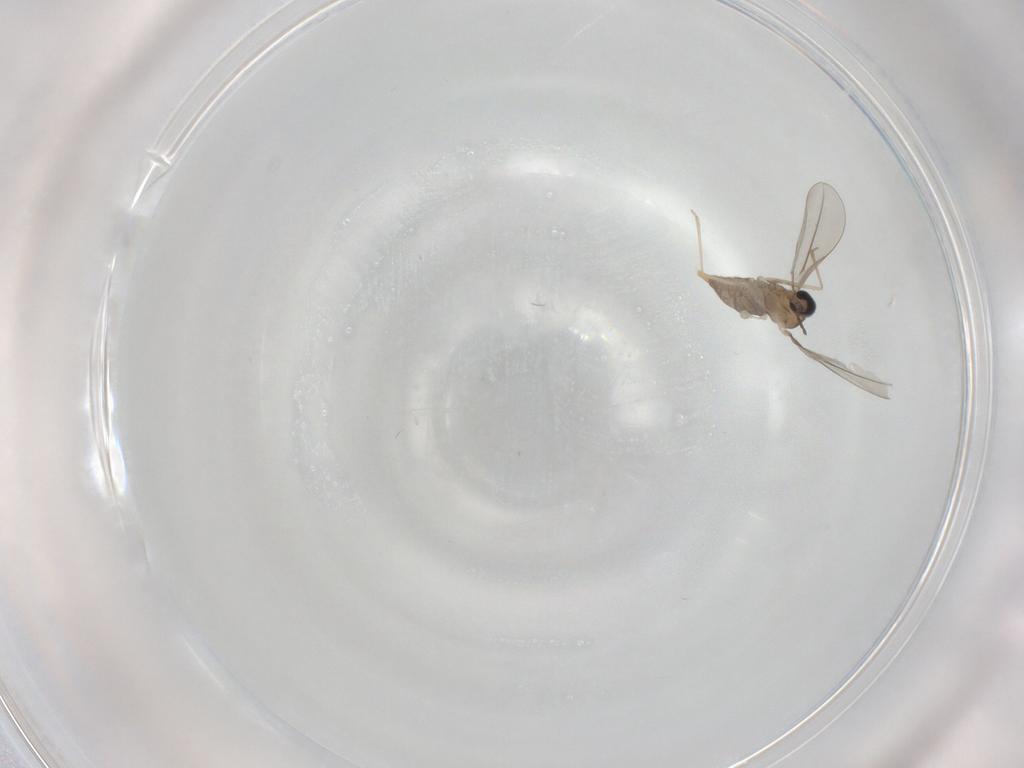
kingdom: Animalia
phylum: Arthropoda
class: Insecta
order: Diptera
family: Cecidomyiidae
